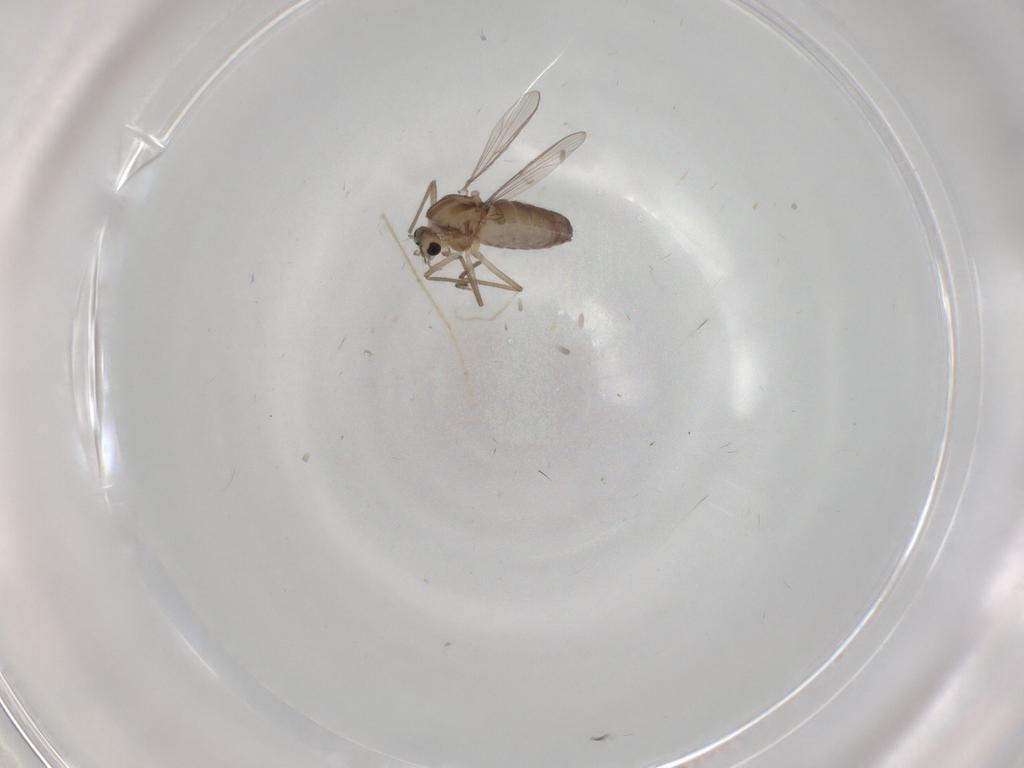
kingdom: Animalia
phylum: Arthropoda
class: Insecta
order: Diptera
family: Chironomidae
